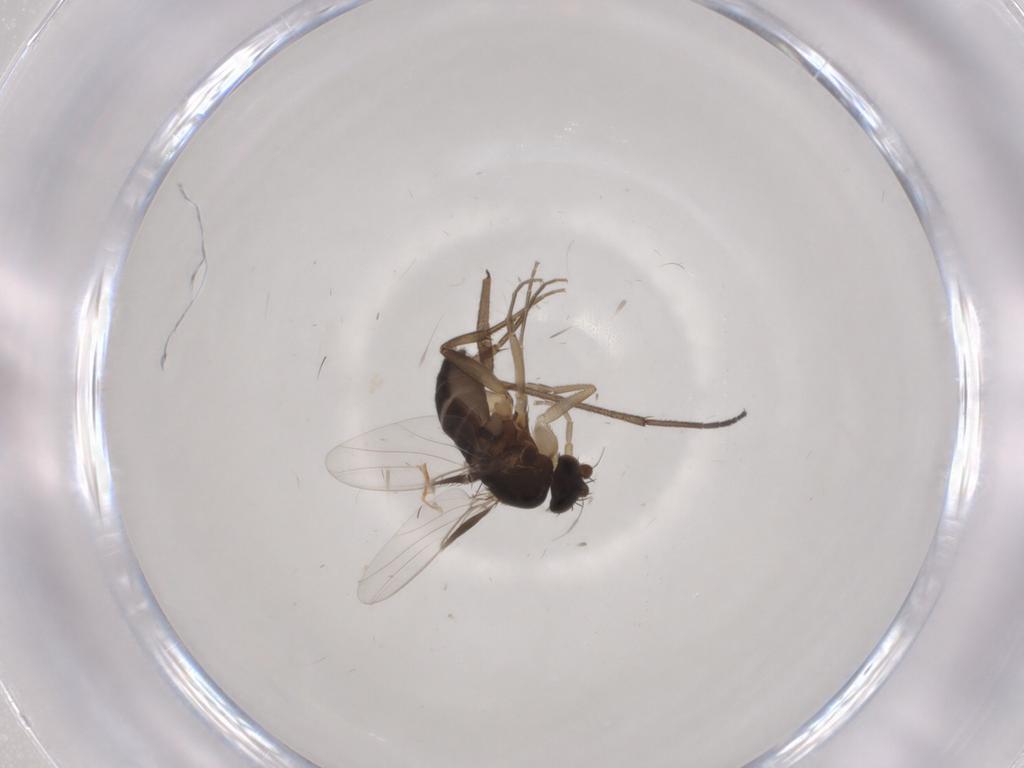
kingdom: Animalia
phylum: Arthropoda
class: Insecta
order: Diptera
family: Phoridae
